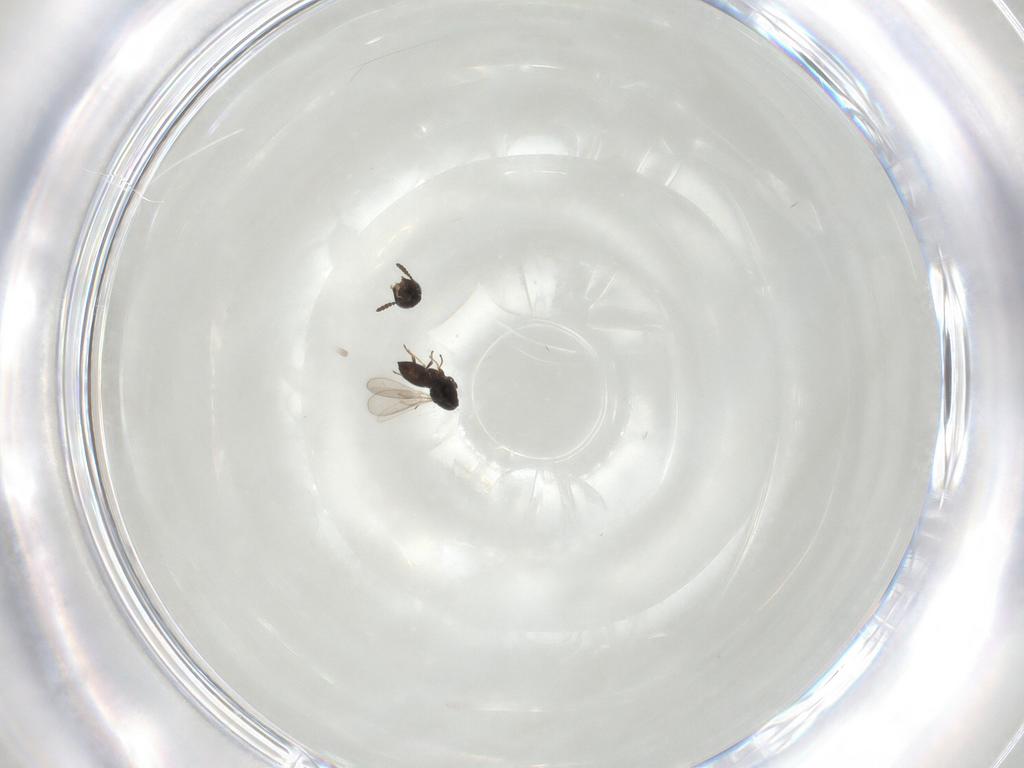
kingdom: Animalia
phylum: Arthropoda
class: Insecta
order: Hymenoptera
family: Scelionidae
